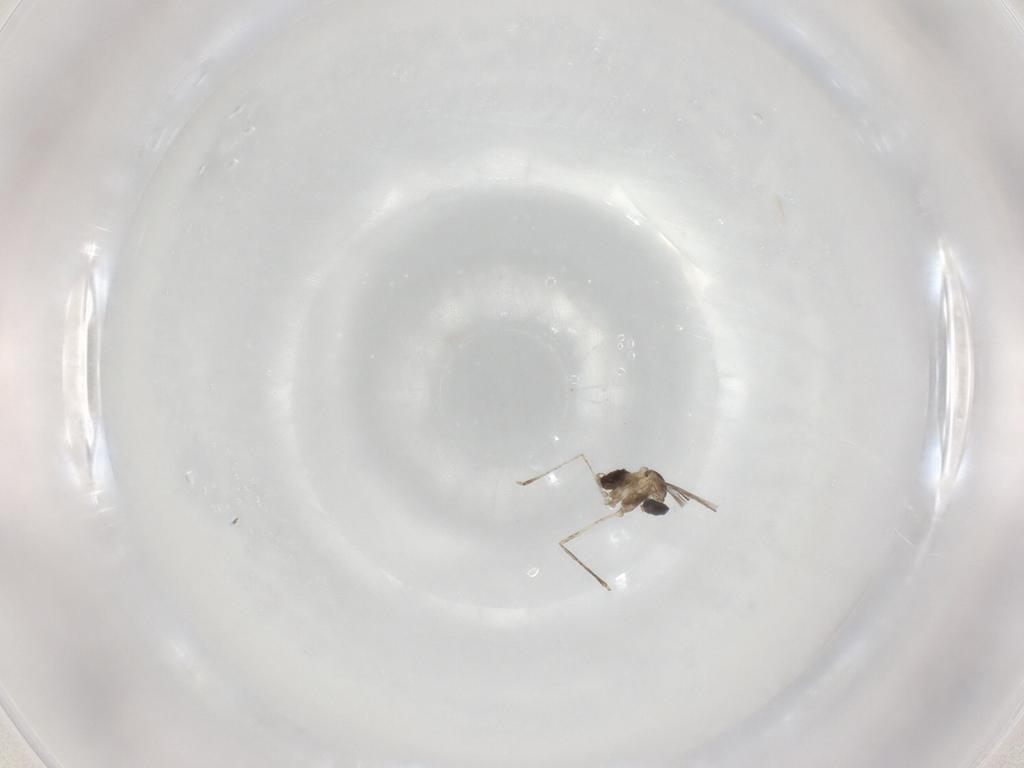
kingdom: Animalia
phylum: Arthropoda
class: Insecta
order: Diptera
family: Cecidomyiidae
